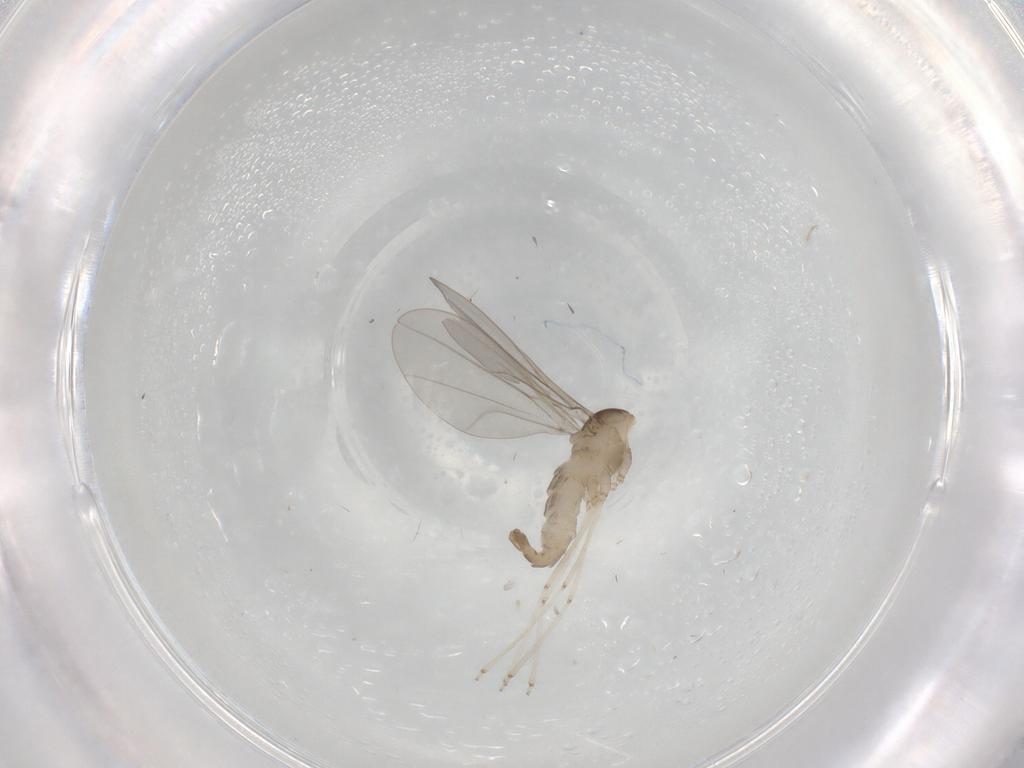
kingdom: Animalia
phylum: Arthropoda
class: Insecta
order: Diptera
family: Cecidomyiidae
